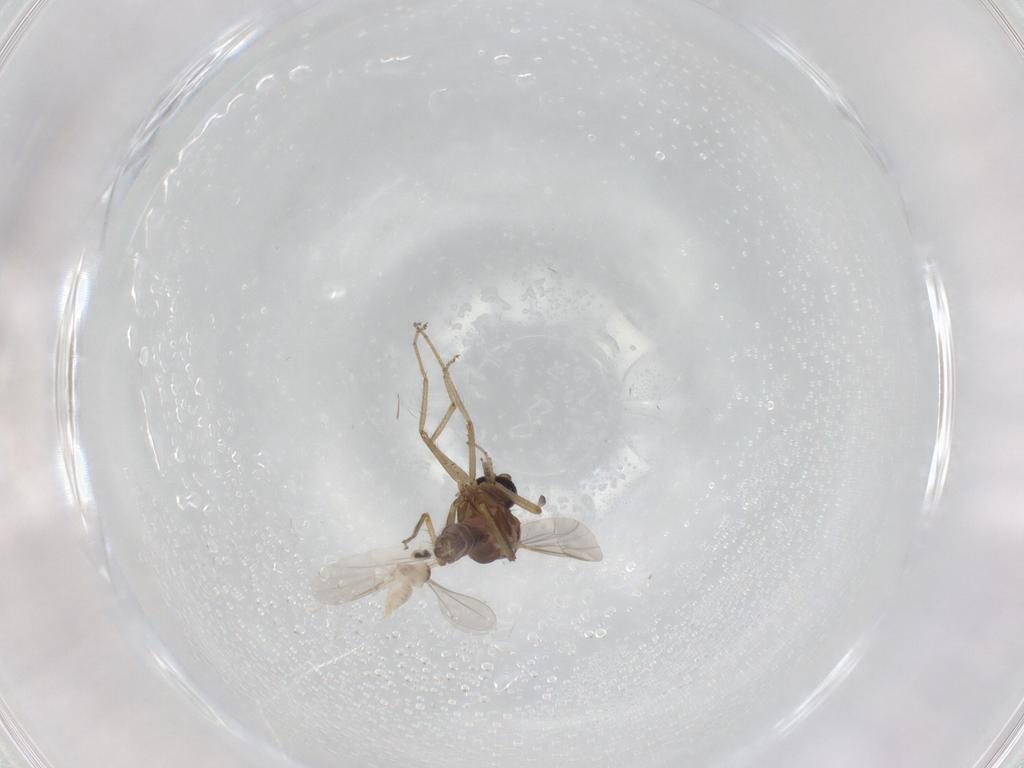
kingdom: Animalia
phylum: Arthropoda
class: Insecta
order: Diptera
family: Cecidomyiidae
